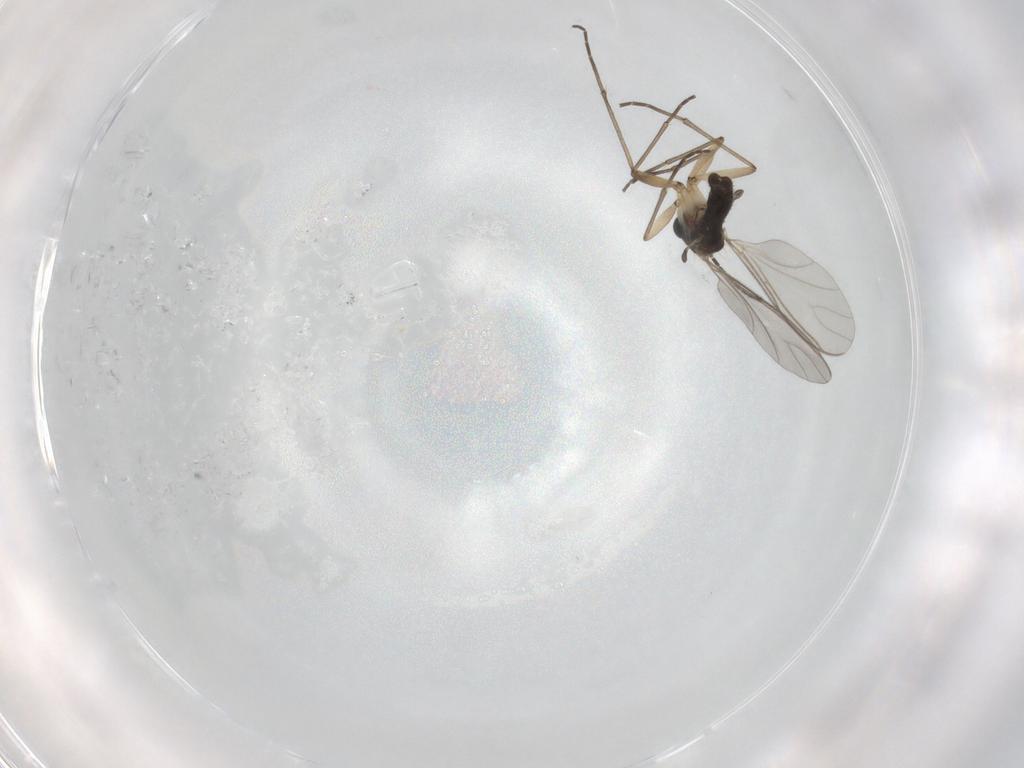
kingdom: Animalia
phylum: Arthropoda
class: Insecta
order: Diptera
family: Sciaridae
